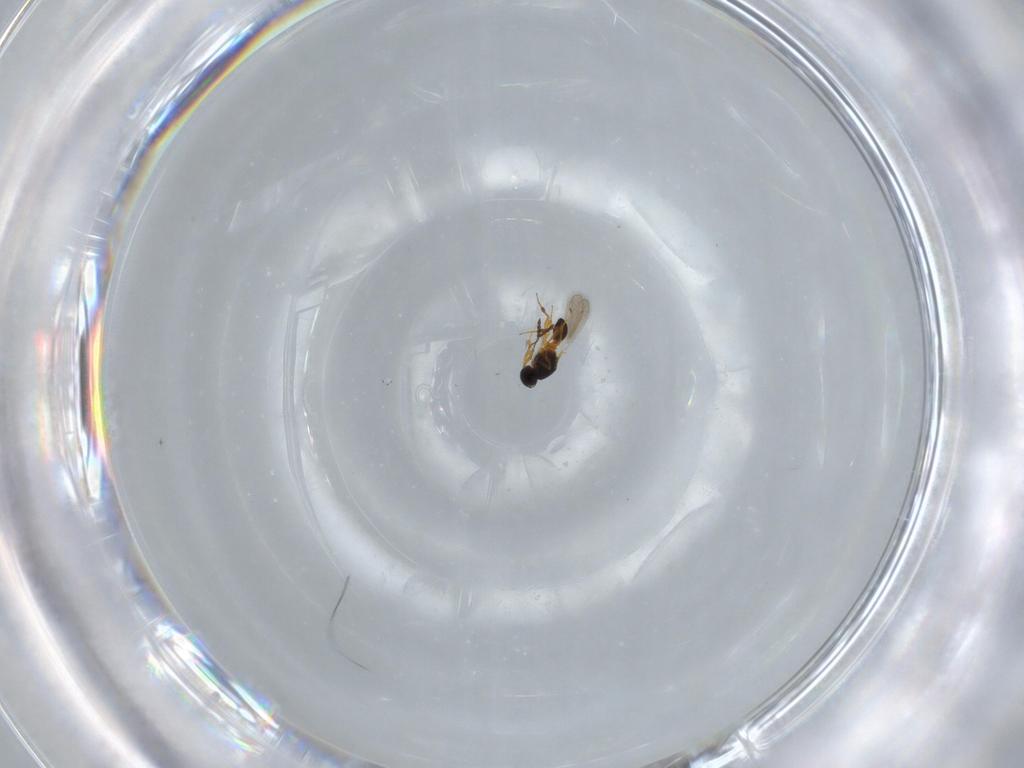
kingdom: Animalia
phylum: Arthropoda
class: Insecta
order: Hymenoptera
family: Platygastridae
